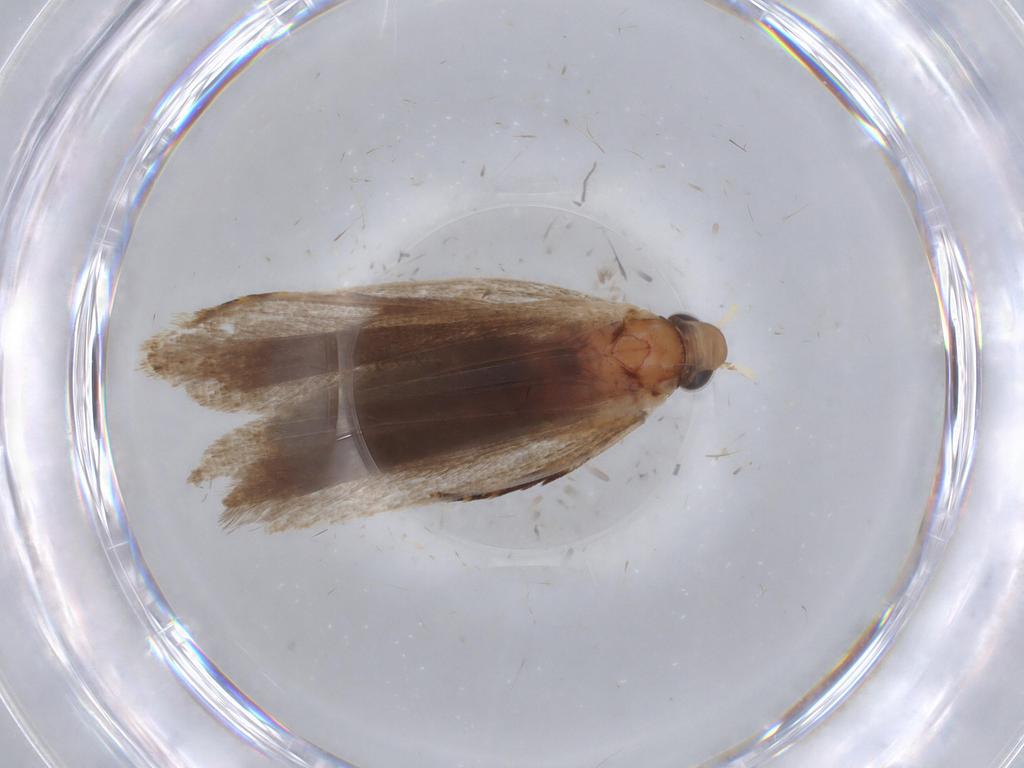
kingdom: Animalia
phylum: Arthropoda
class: Insecta
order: Lepidoptera
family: Gelechiidae
